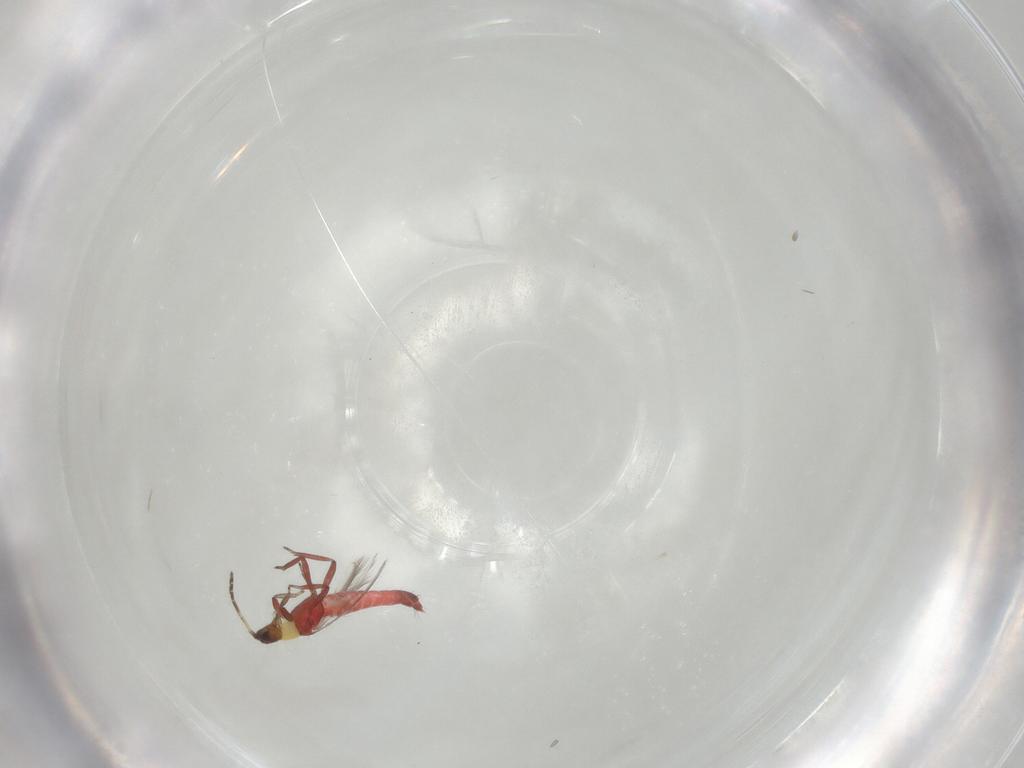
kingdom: Animalia
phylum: Arthropoda
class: Insecta
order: Thysanoptera
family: Aeolothripidae
